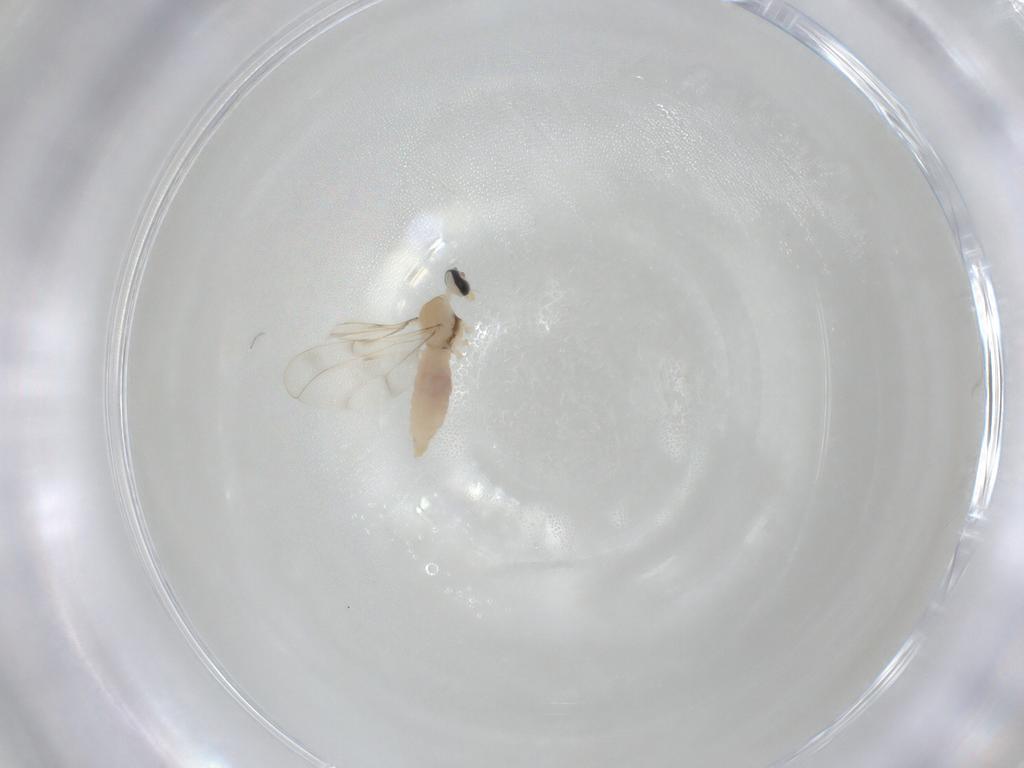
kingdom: Animalia
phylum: Arthropoda
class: Insecta
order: Diptera
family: Cecidomyiidae
